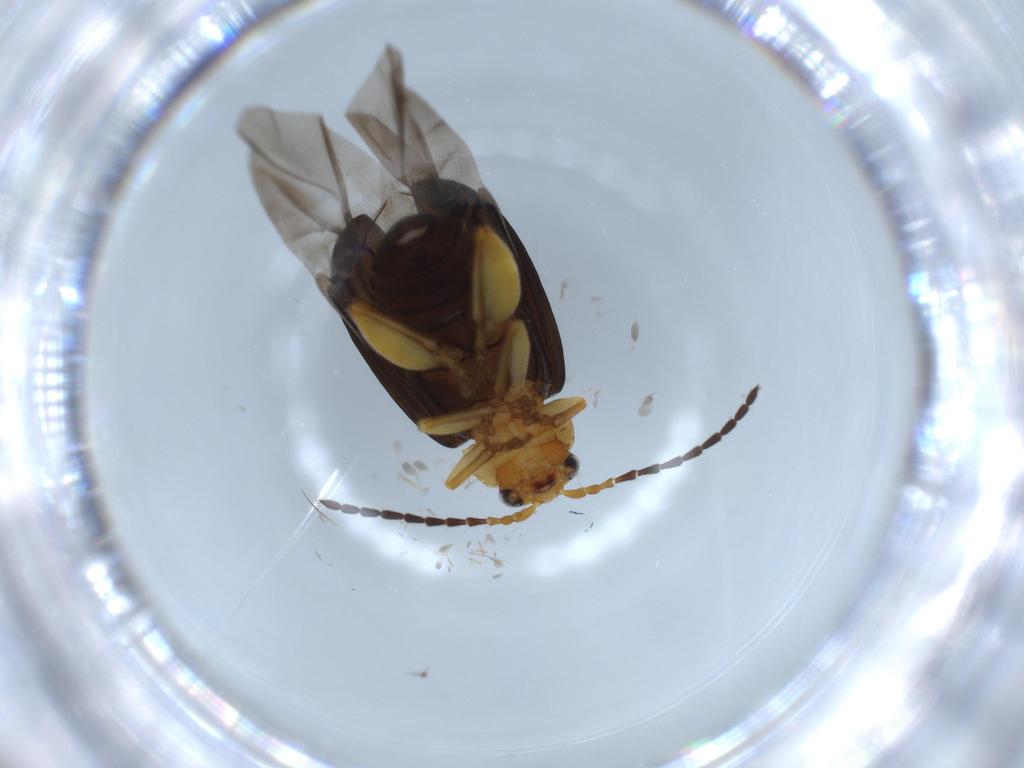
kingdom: Animalia
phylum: Arthropoda
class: Insecta
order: Coleoptera
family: Chrysomelidae
